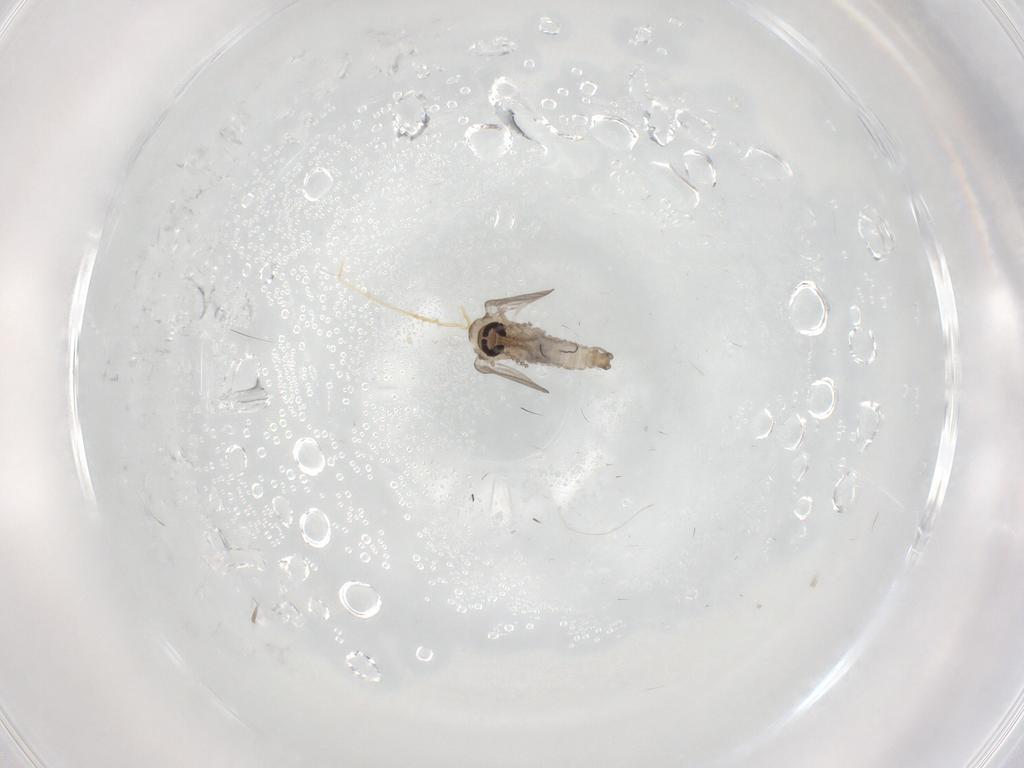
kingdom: Animalia
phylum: Arthropoda
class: Insecta
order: Diptera
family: Psychodidae
